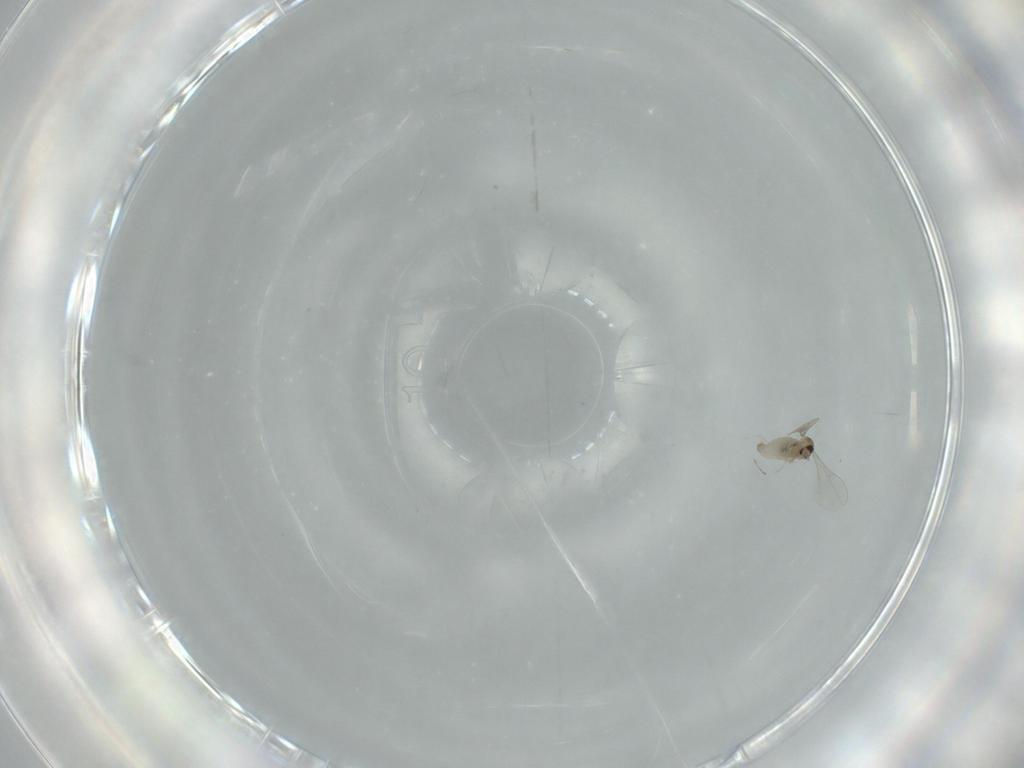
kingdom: Animalia
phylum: Arthropoda
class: Insecta
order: Diptera
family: Cecidomyiidae
